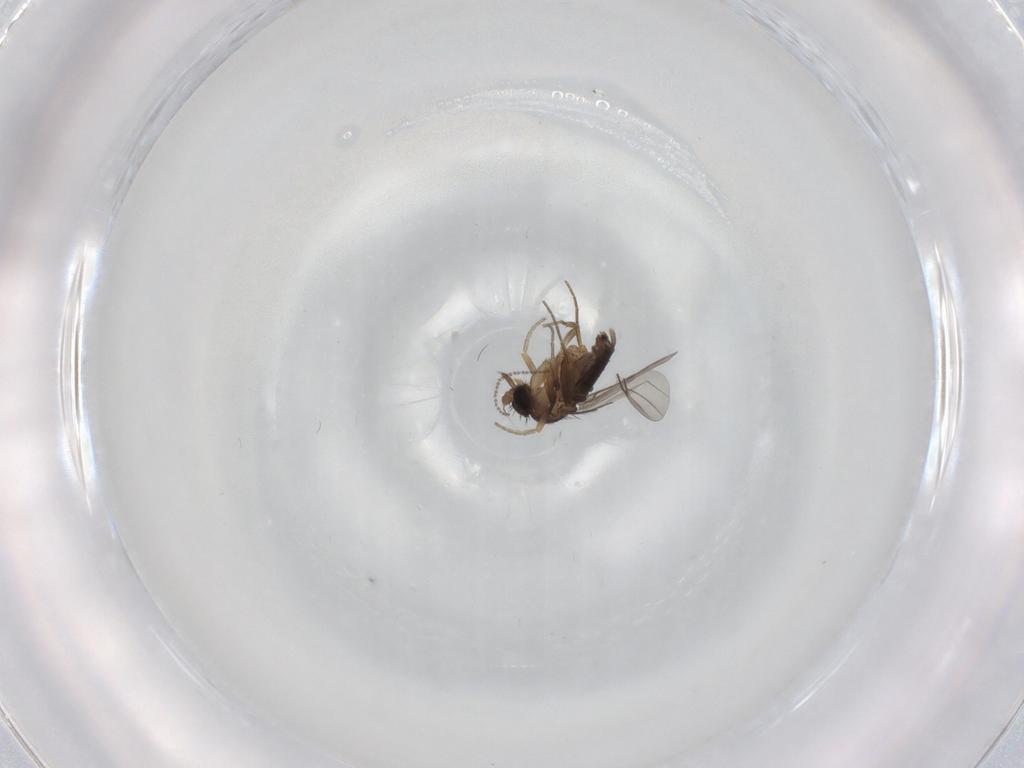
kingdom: Animalia
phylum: Arthropoda
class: Insecta
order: Diptera
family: Phoridae
